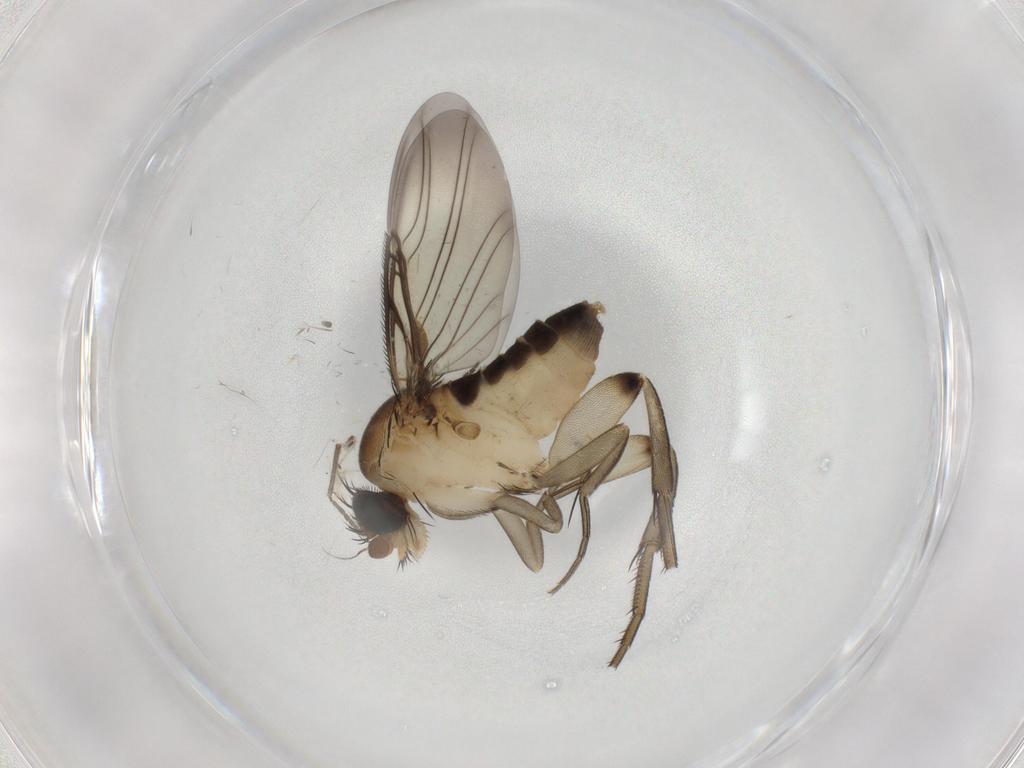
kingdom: Animalia
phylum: Arthropoda
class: Insecta
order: Diptera
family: Phoridae
